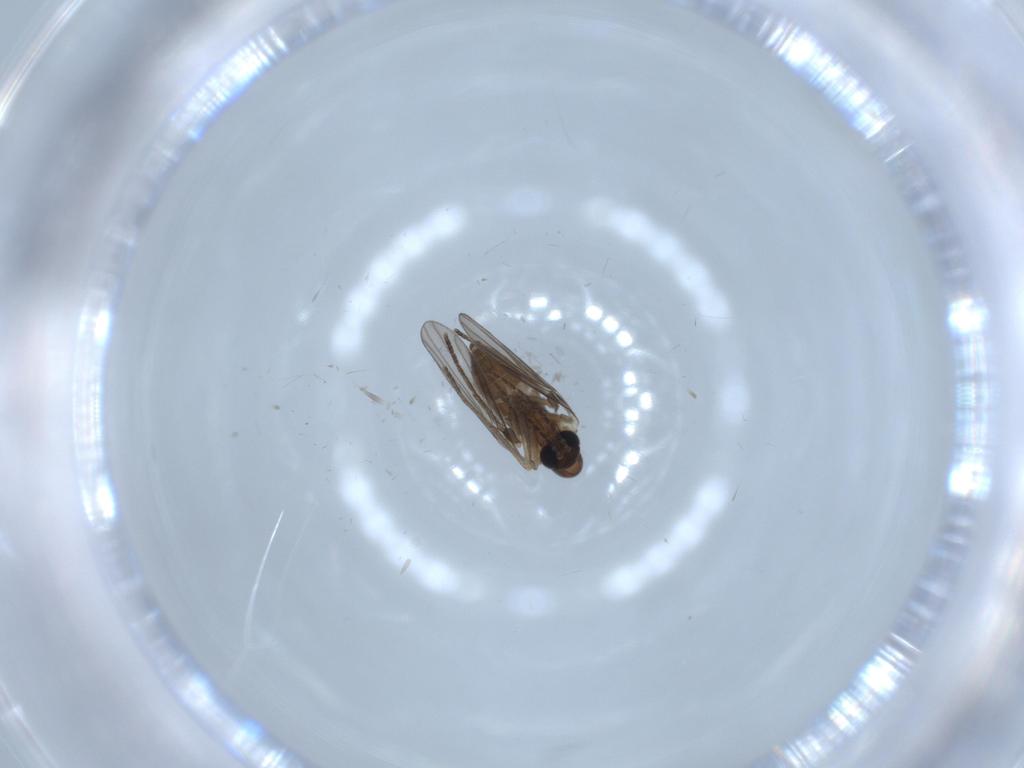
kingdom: Animalia
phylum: Arthropoda
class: Insecta
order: Diptera
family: Psychodidae
